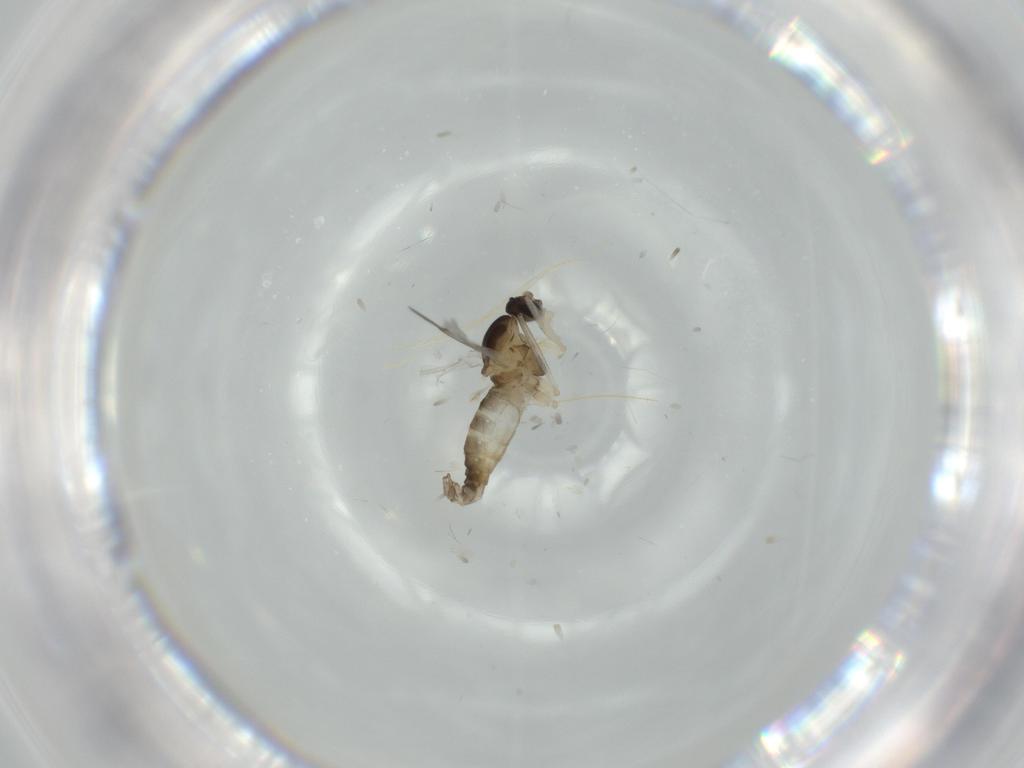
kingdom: Animalia
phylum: Arthropoda
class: Insecta
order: Diptera
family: Cecidomyiidae
